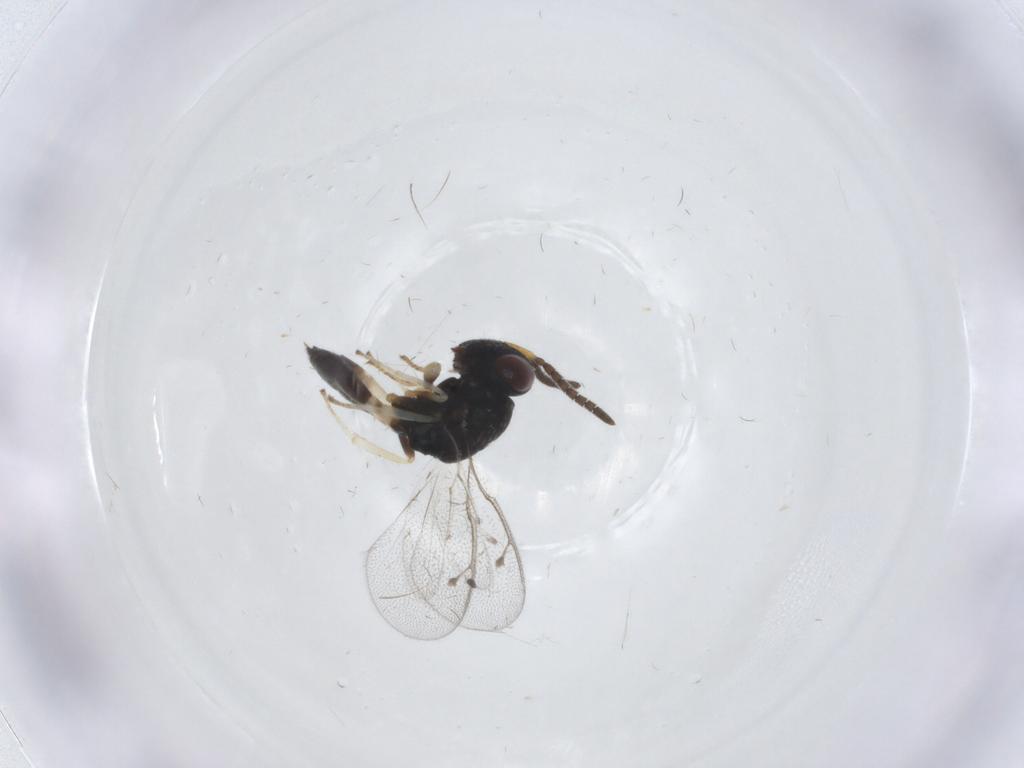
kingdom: Animalia
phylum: Arthropoda
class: Insecta
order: Hymenoptera
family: Pteromalidae
